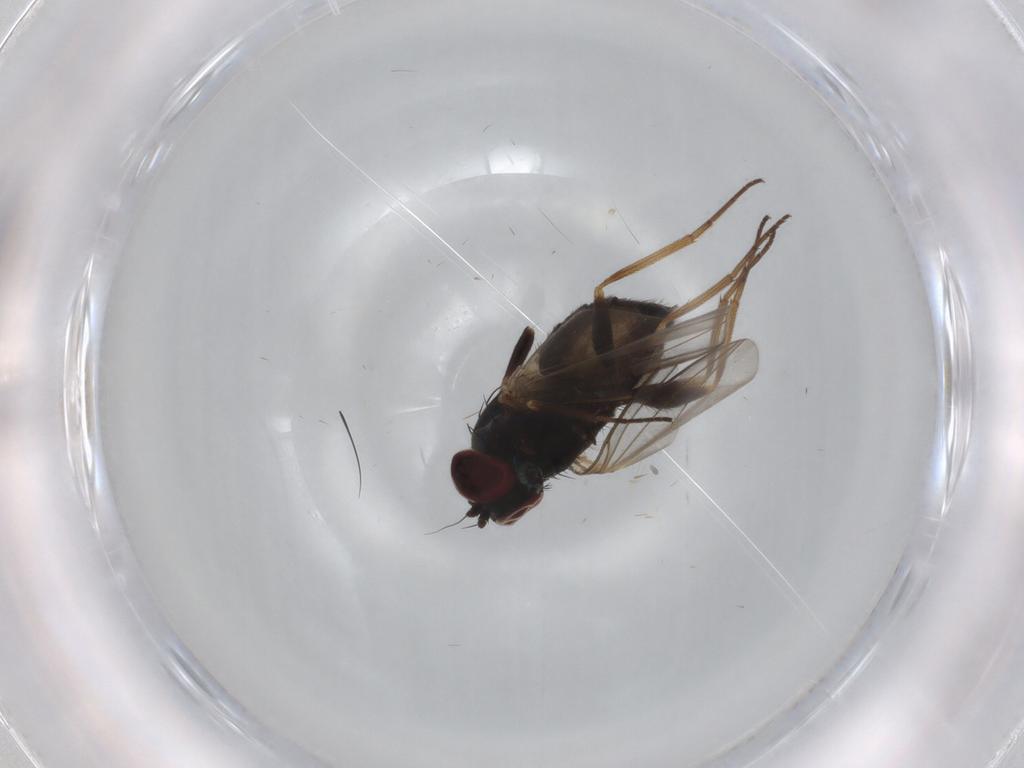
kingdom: Animalia
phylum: Arthropoda
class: Insecta
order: Diptera
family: Dolichopodidae
